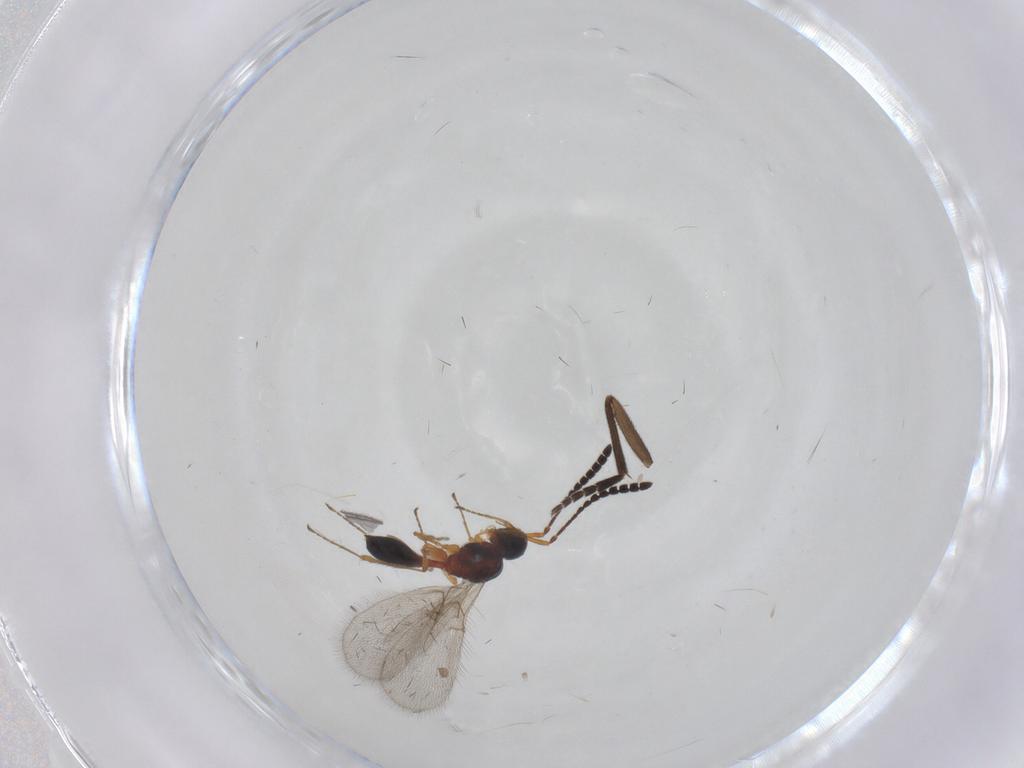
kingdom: Animalia
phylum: Arthropoda
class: Insecta
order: Hymenoptera
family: Diapriidae
